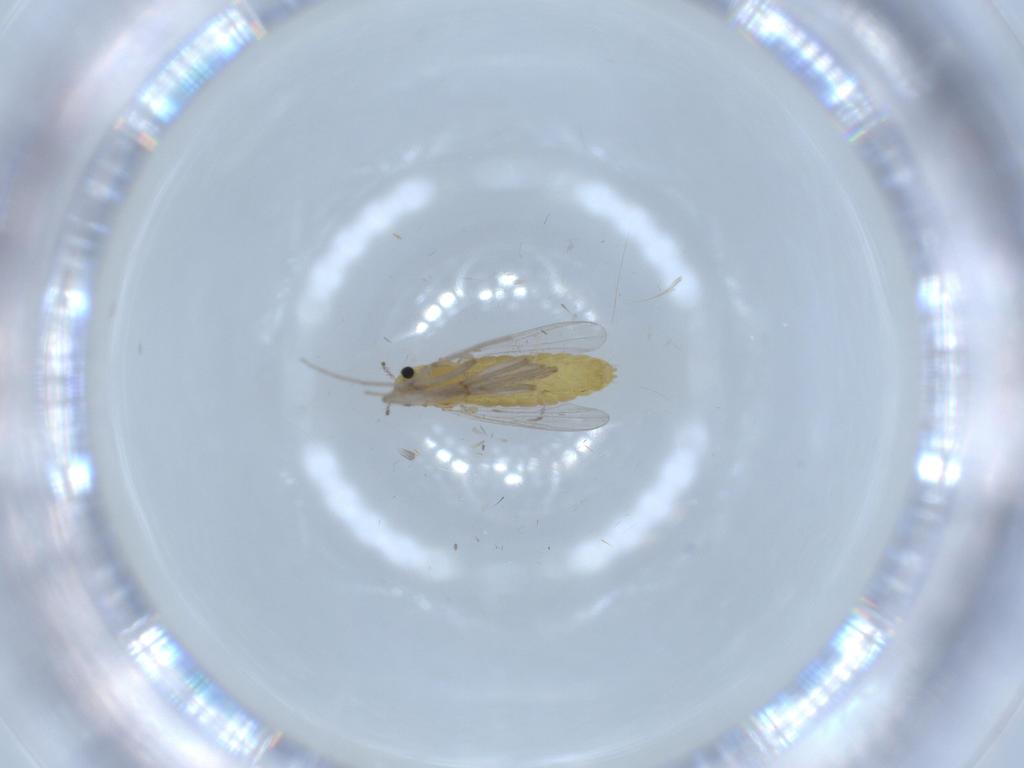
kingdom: Animalia
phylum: Arthropoda
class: Insecta
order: Diptera
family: Chironomidae
